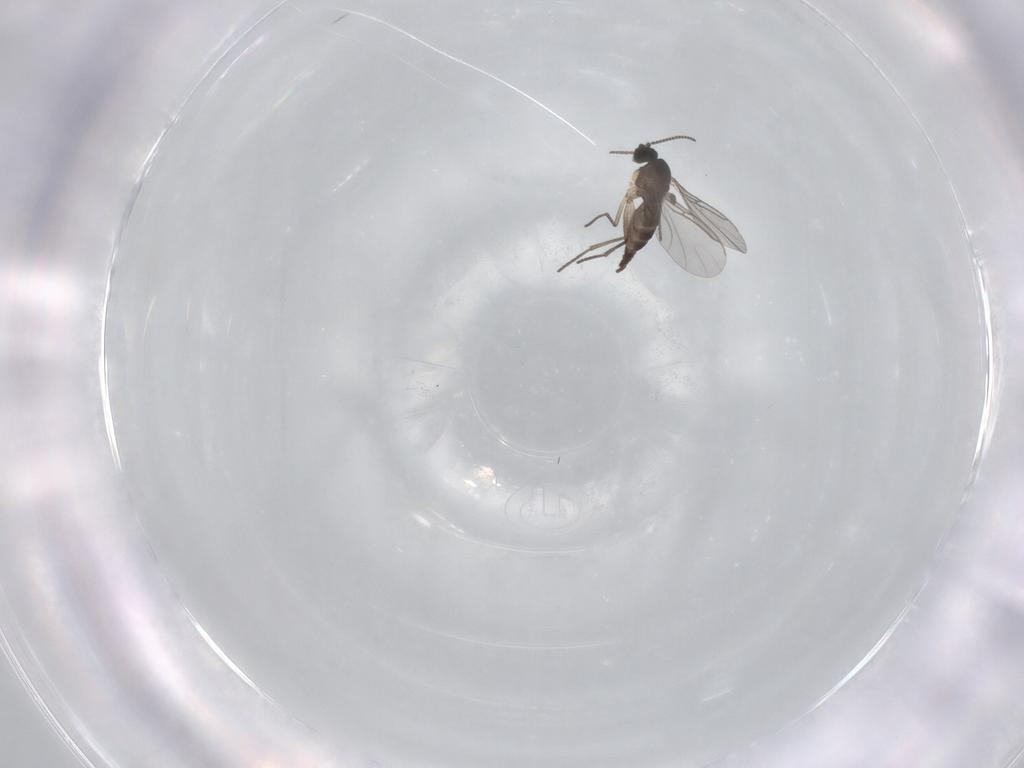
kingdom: Animalia
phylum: Arthropoda
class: Insecta
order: Diptera
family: Sciaridae
